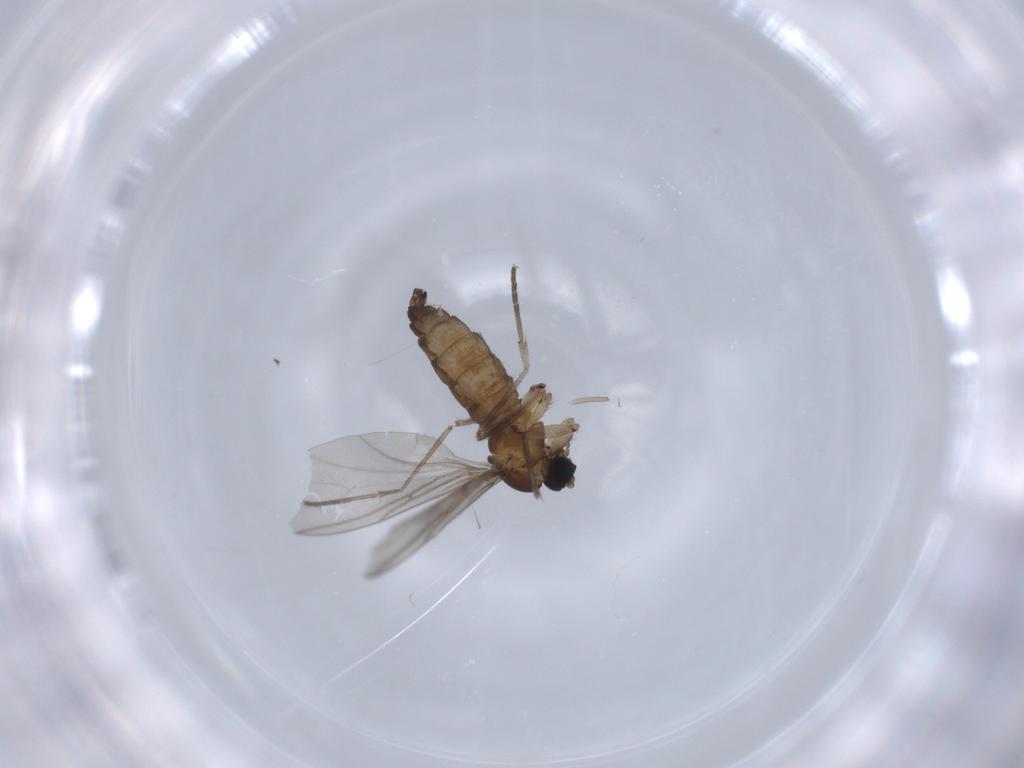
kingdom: Animalia
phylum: Arthropoda
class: Insecta
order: Diptera
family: Sciaridae
